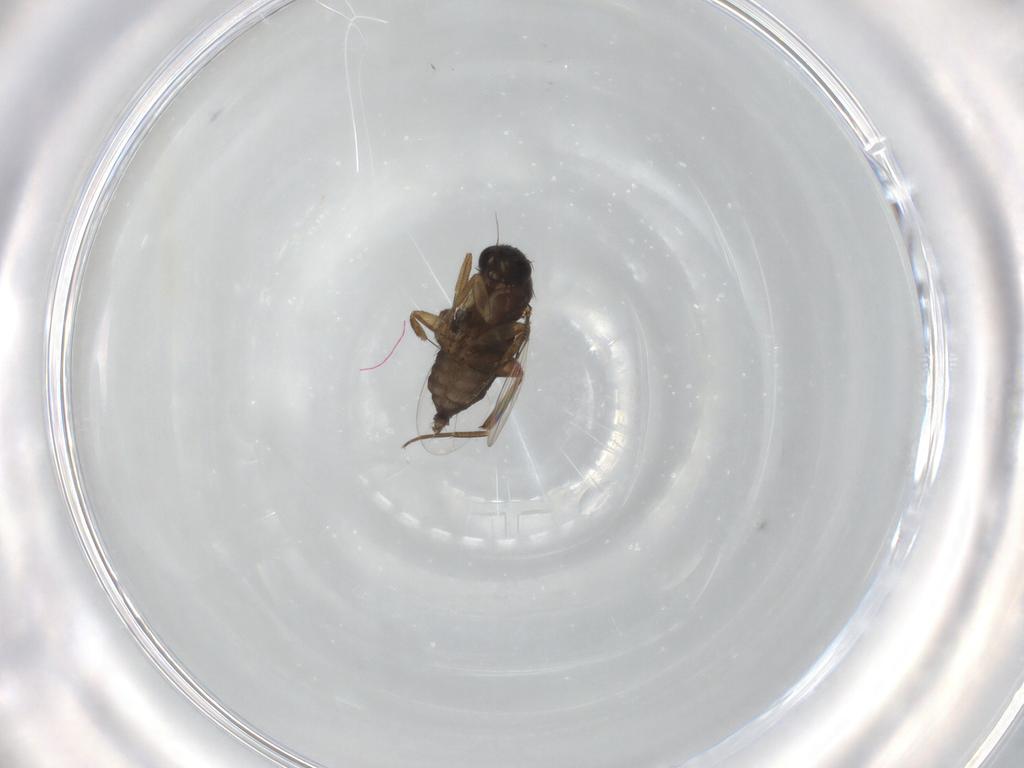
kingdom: Animalia
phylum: Arthropoda
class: Insecta
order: Diptera
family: Phoridae
